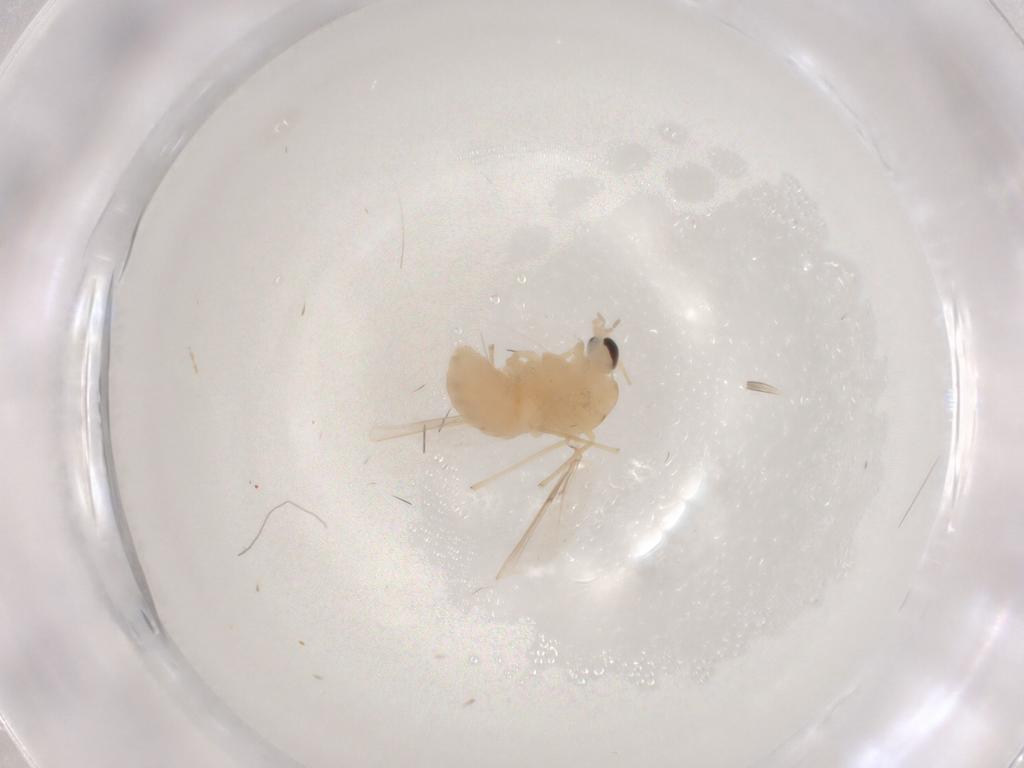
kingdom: Animalia
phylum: Arthropoda
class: Insecta
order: Diptera
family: Chironomidae
